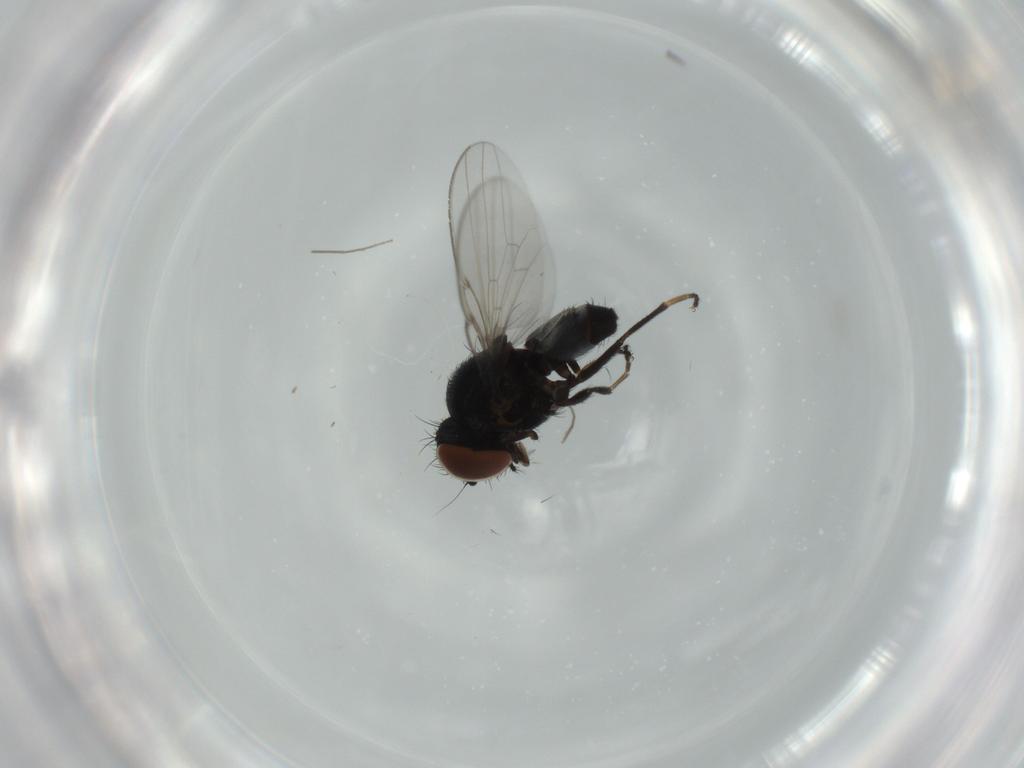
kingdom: Animalia
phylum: Arthropoda
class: Insecta
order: Diptera
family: Milichiidae
